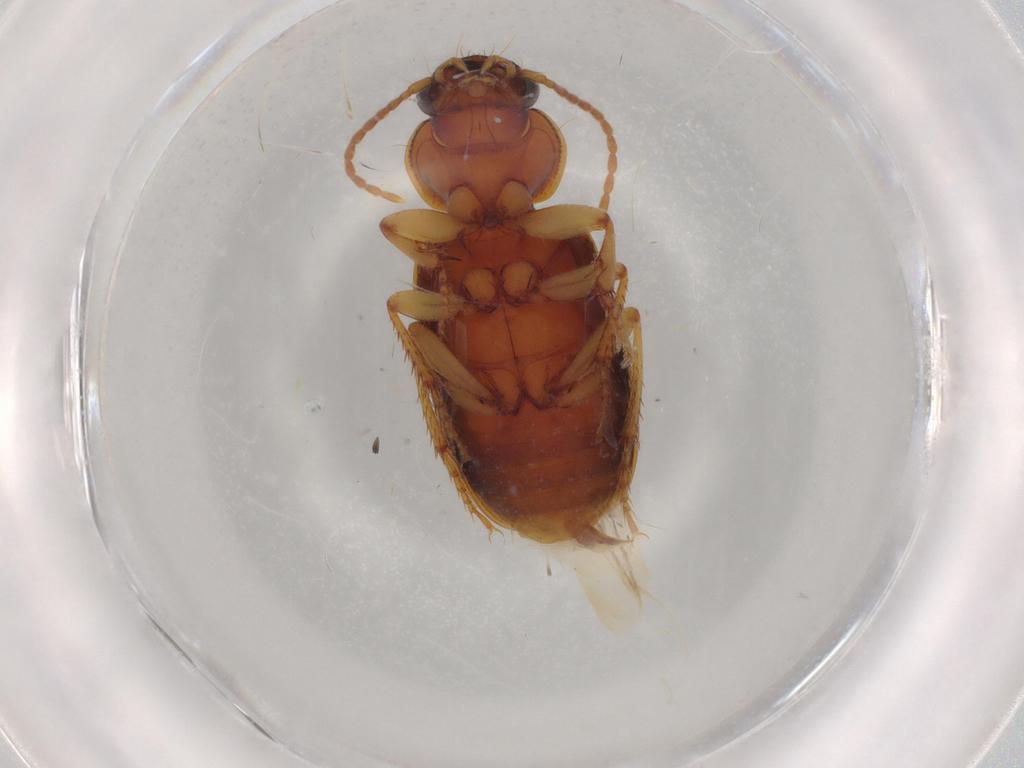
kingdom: Animalia
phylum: Arthropoda
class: Insecta
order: Coleoptera
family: Carabidae
